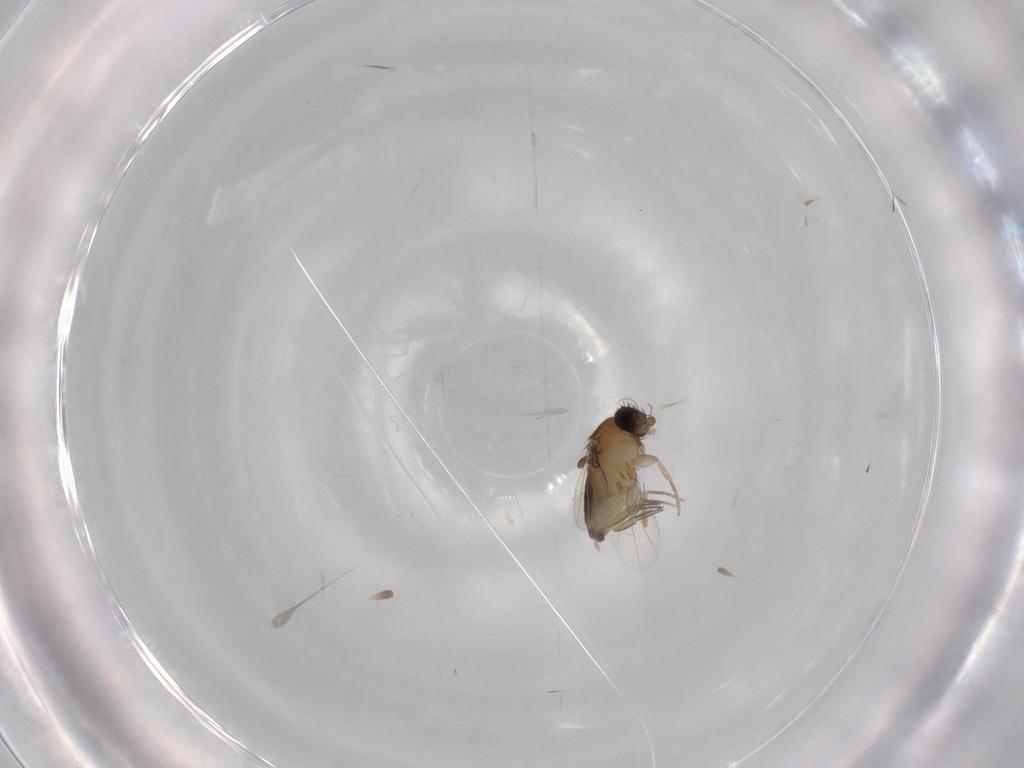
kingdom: Animalia
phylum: Arthropoda
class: Insecta
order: Diptera
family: Phoridae
